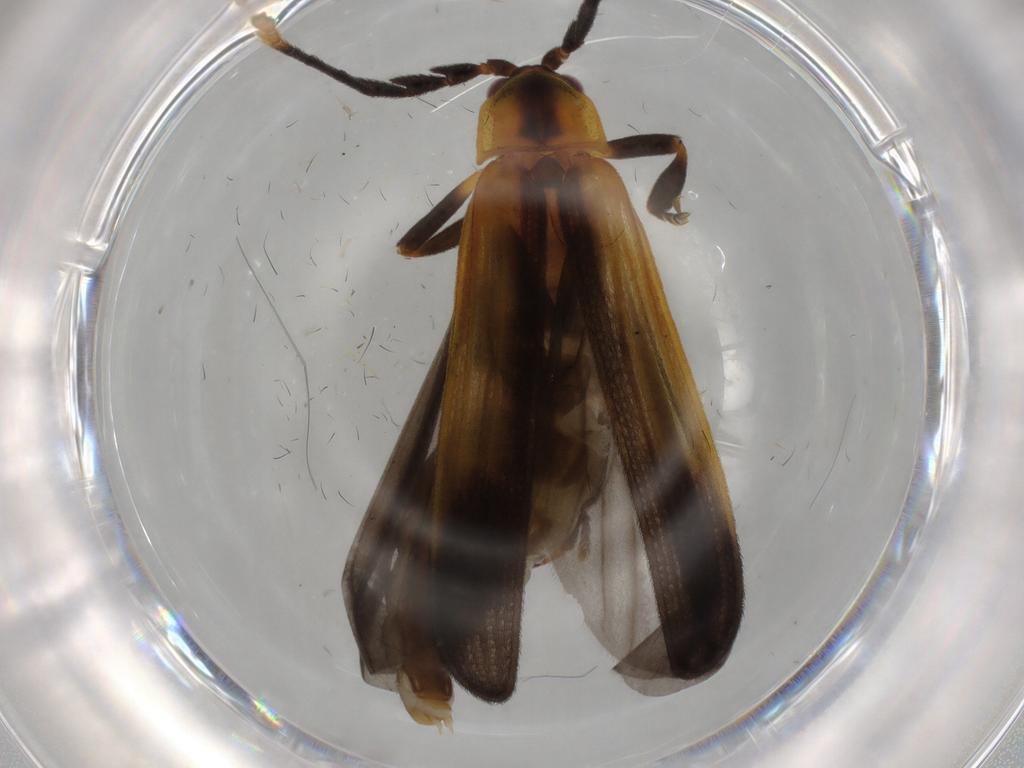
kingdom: Animalia
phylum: Arthropoda
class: Insecta
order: Coleoptera
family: Lycidae
